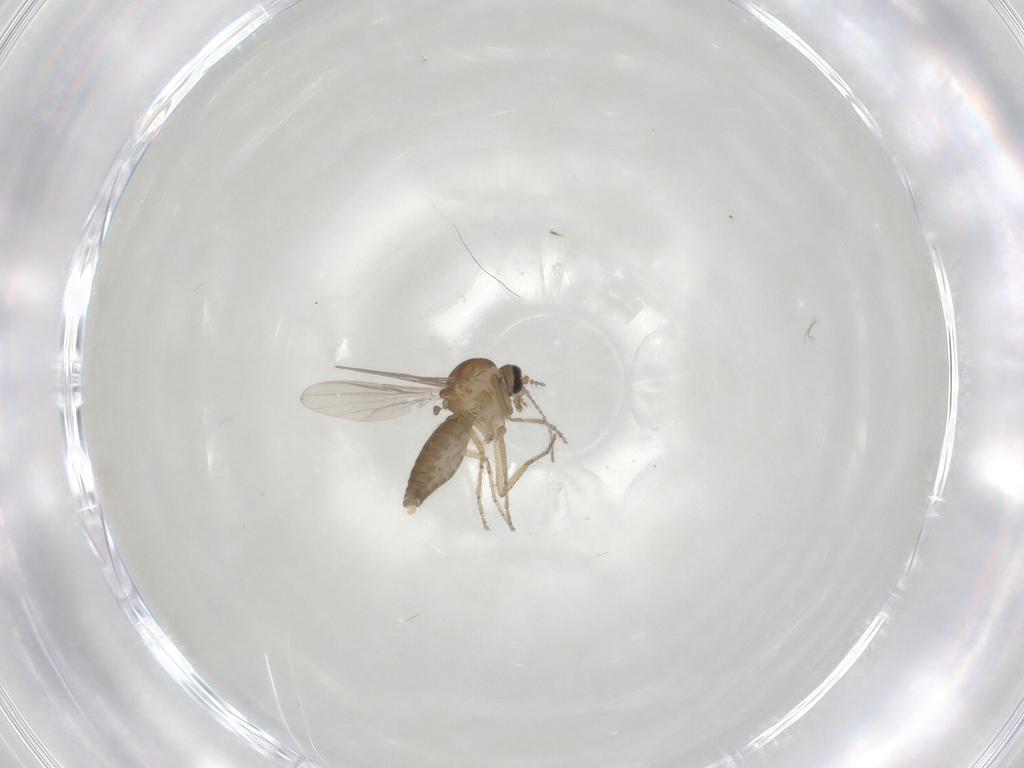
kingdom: Animalia
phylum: Arthropoda
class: Insecta
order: Diptera
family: Ceratopogonidae
